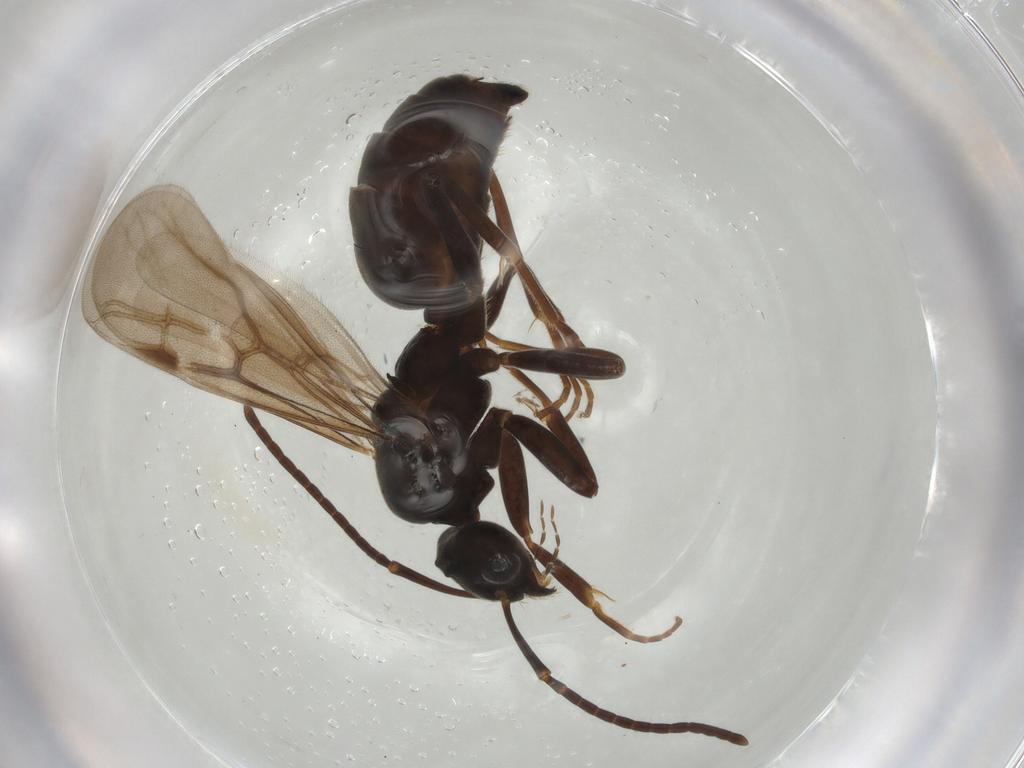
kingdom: Animalia
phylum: Arthropoda
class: Insecta
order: Hymenoptera
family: Formicidae
